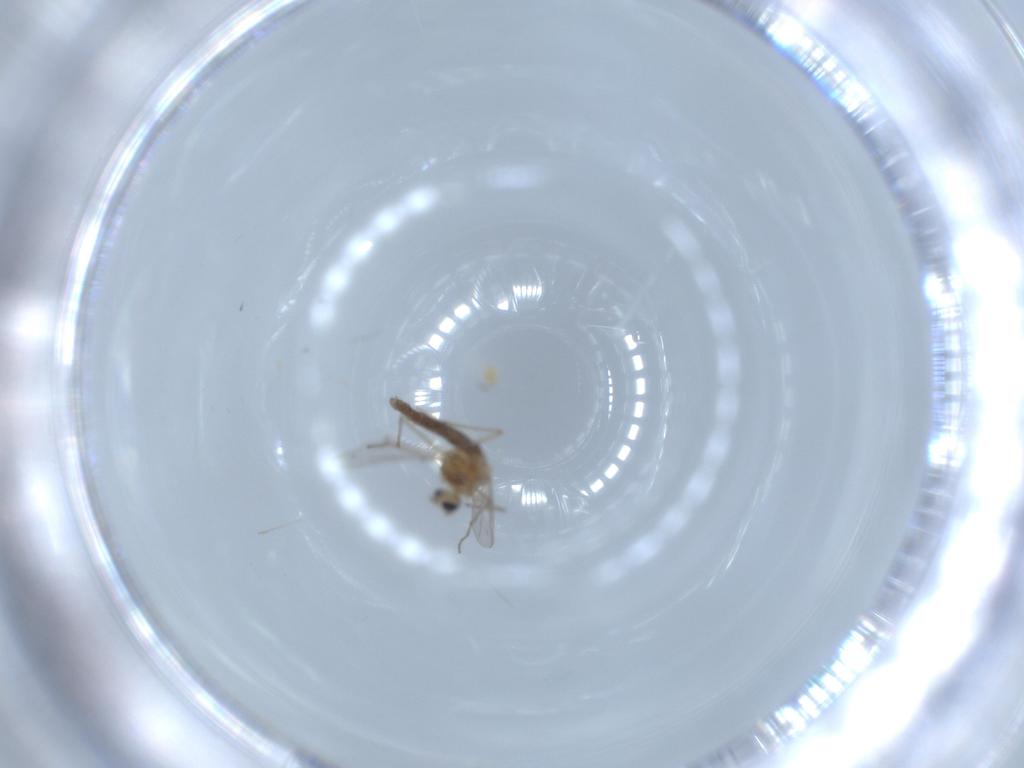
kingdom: Animalia
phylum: Arthropoda
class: Insecta
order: Diptera
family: Chironomidae
